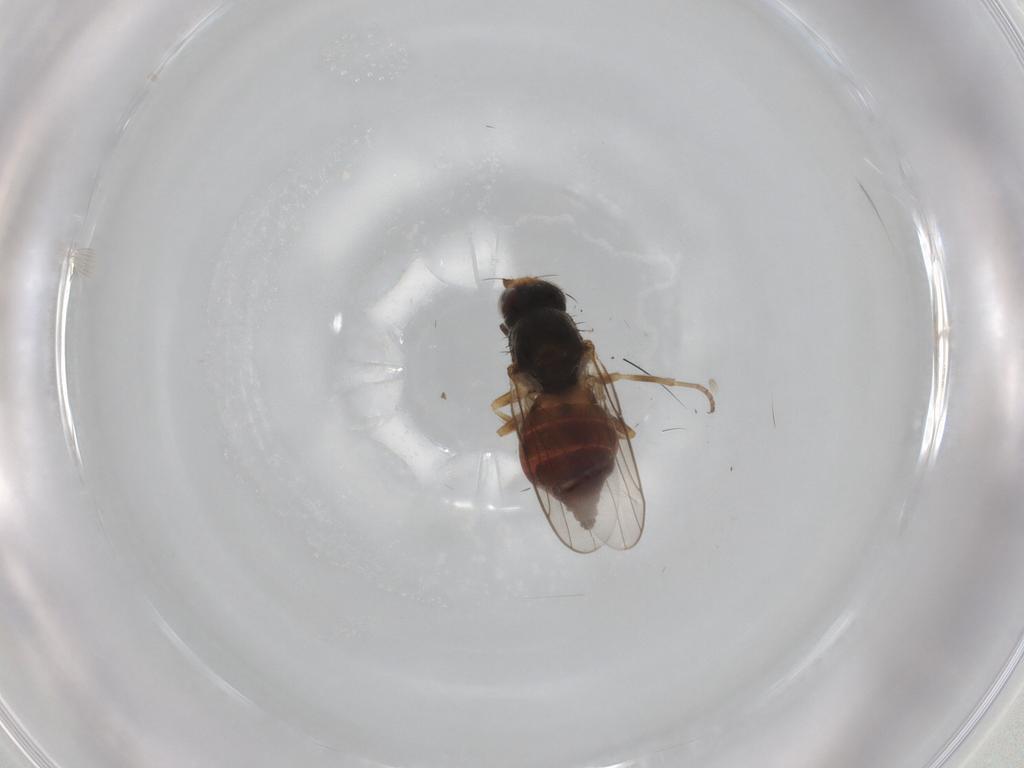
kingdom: Animalia
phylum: Arthropoda
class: Insecta
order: Diptera
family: Chloropidae
